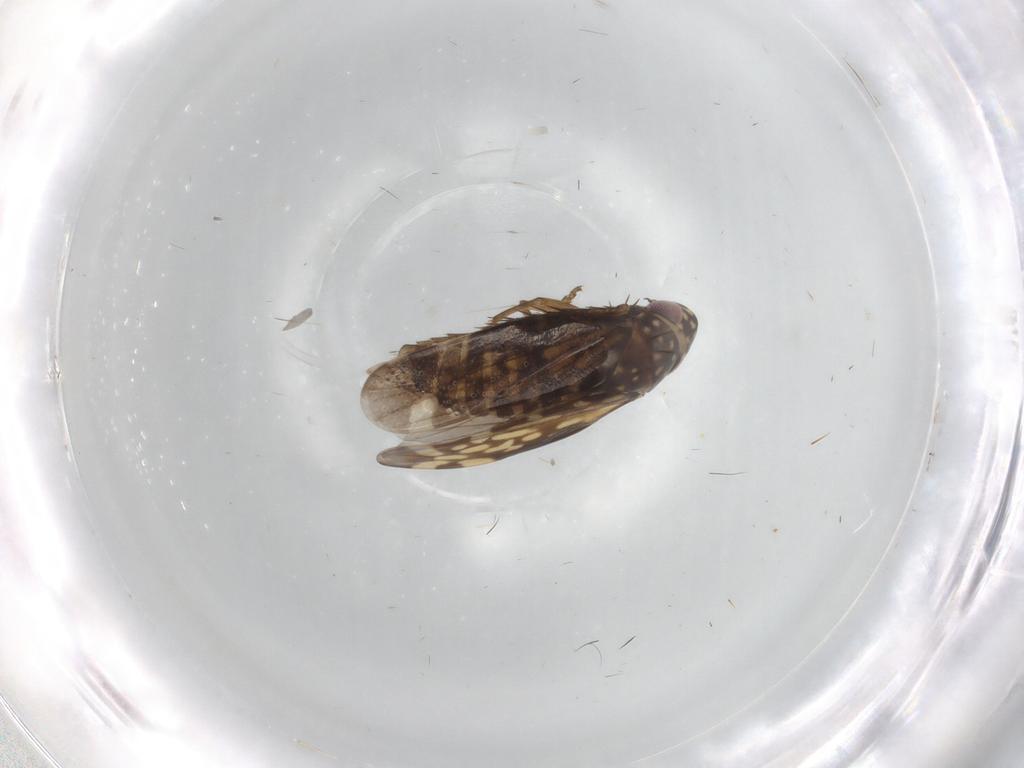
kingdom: Animalia
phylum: Arthropoda
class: Insecta
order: Hemiptera
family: Cicadellidae
